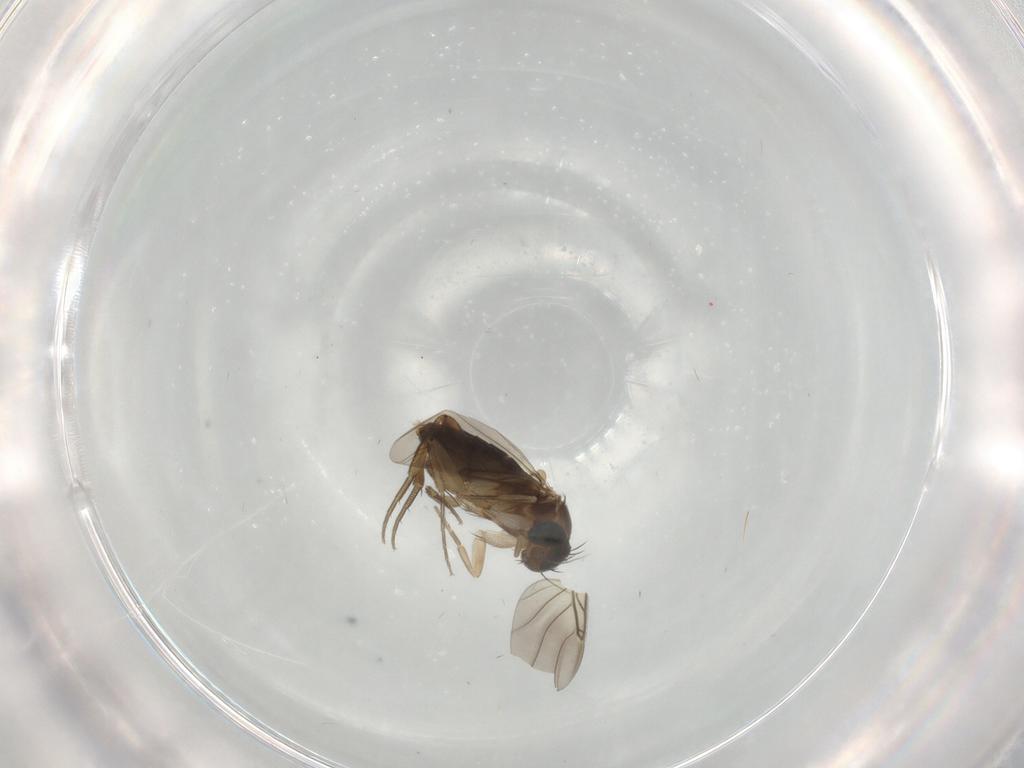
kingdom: Animalia
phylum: Arthropoda
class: Insecta
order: Diptera
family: Phoridae
